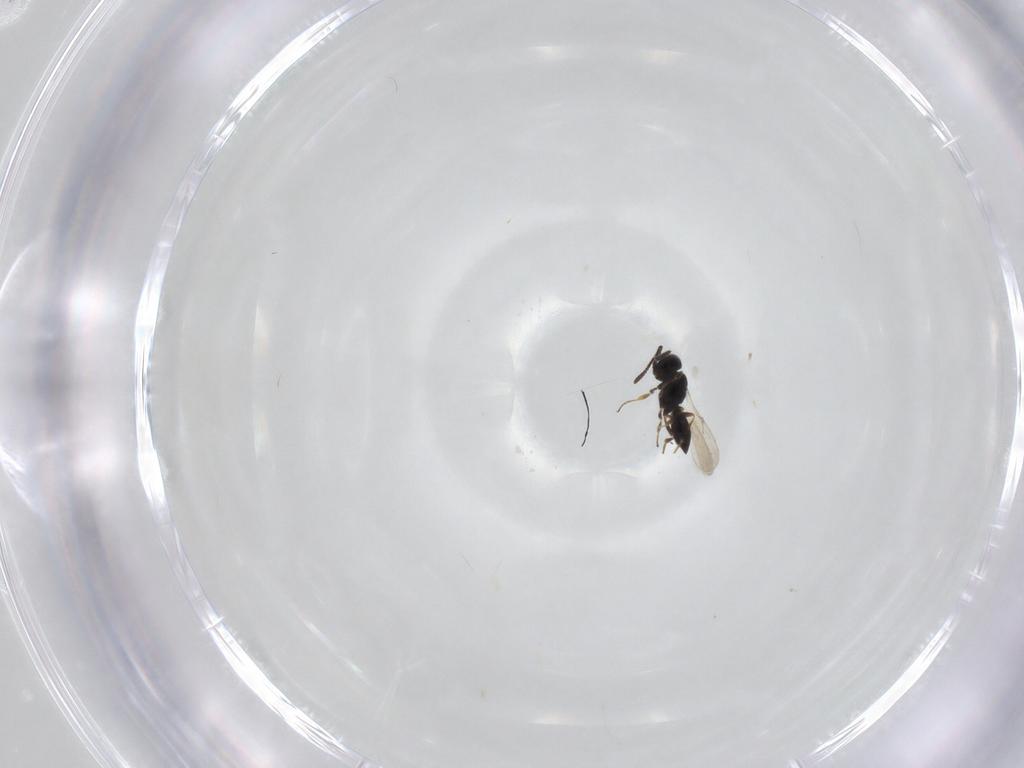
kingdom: Animalia
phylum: Arthropoda
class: Insecta
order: Hymenoptera
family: Scelionidae
